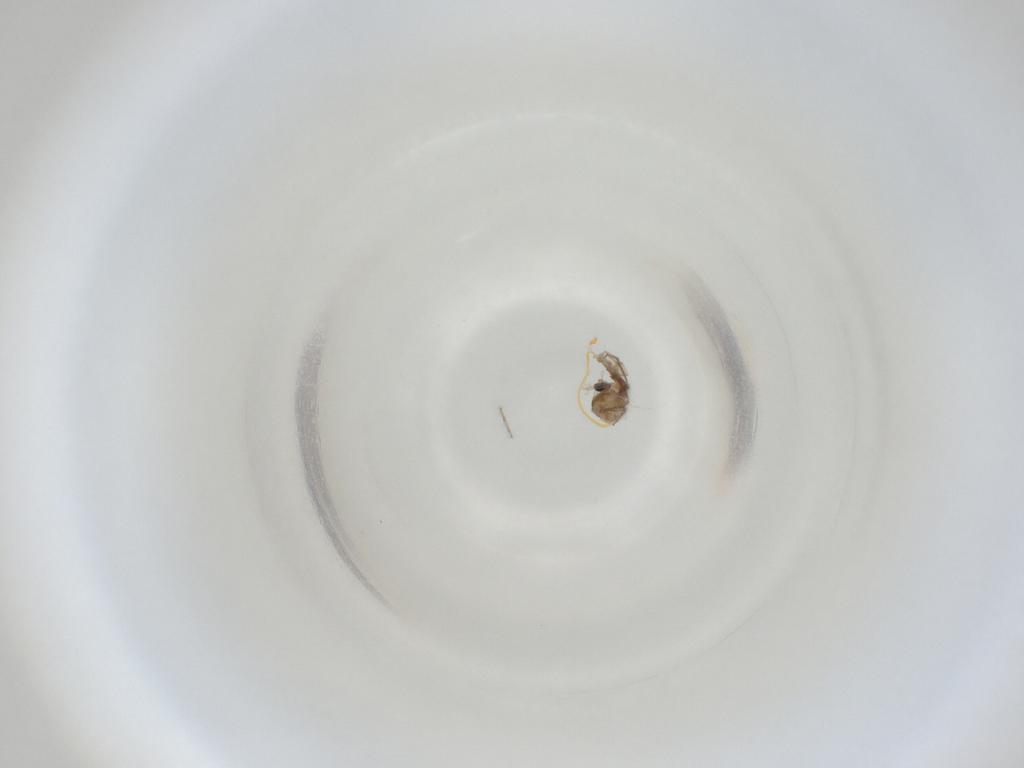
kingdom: Animalia
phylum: Arthropoda
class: Insecta
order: Diptera
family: Cecidomyiidae
